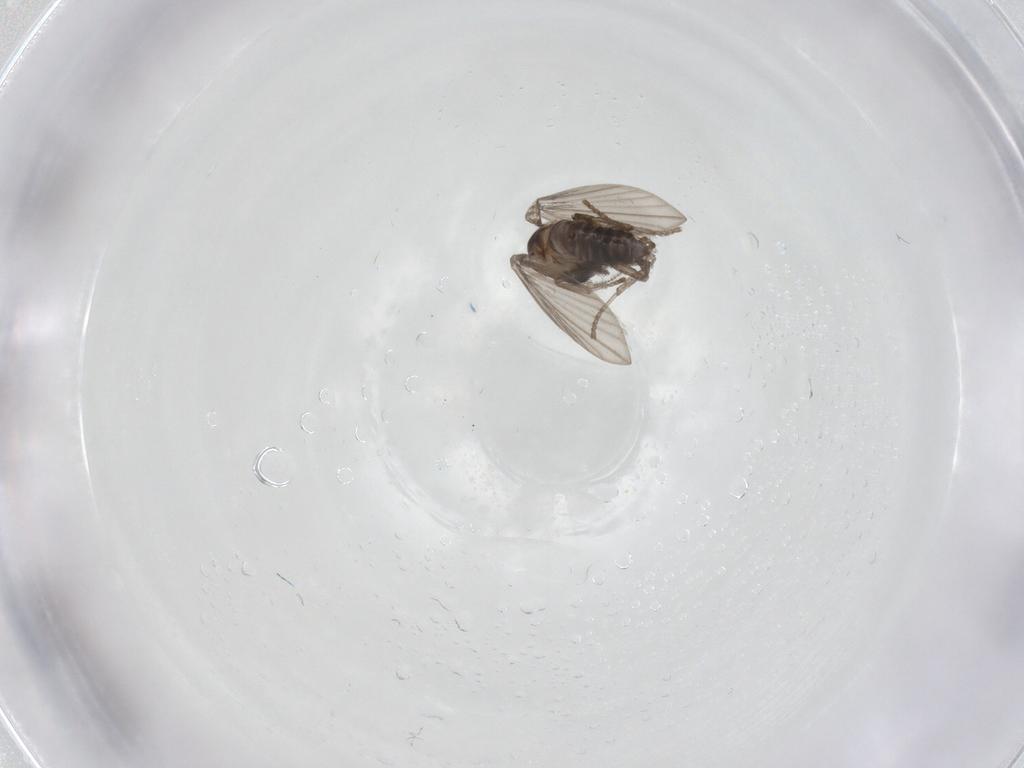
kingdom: Animalia
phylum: Arthropoda
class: Insecta
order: Diptera
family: Psychodidae
